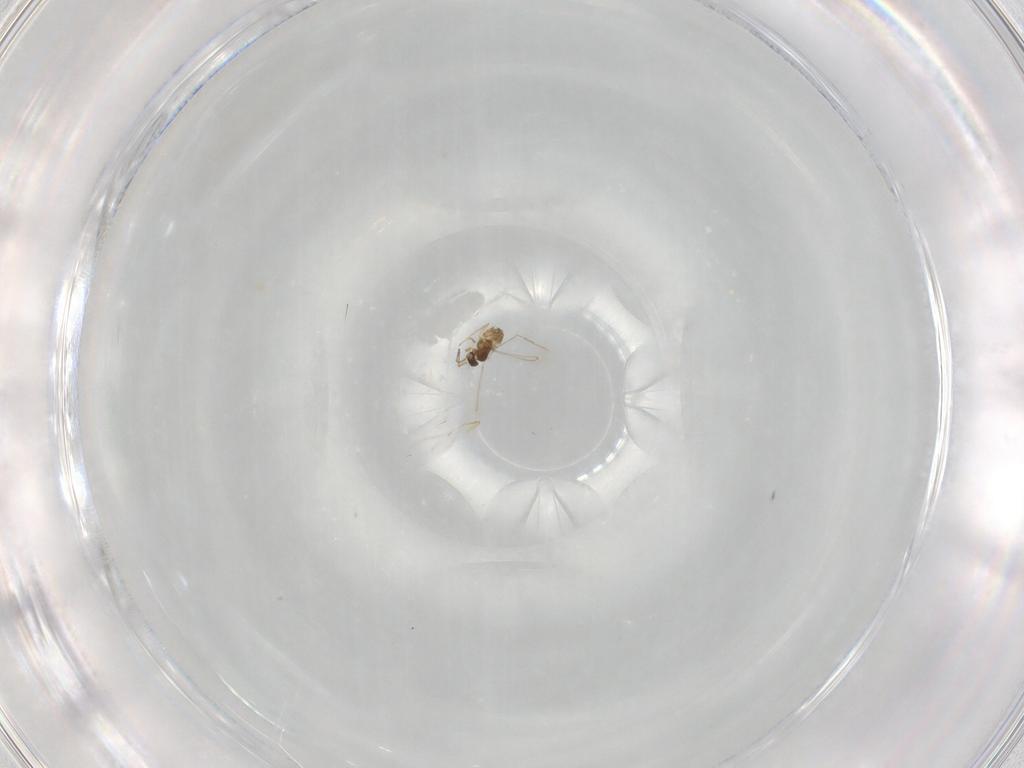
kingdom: Animalia
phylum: Arthropoda
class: Insecta
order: Hymenoptera
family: Mymaridae
